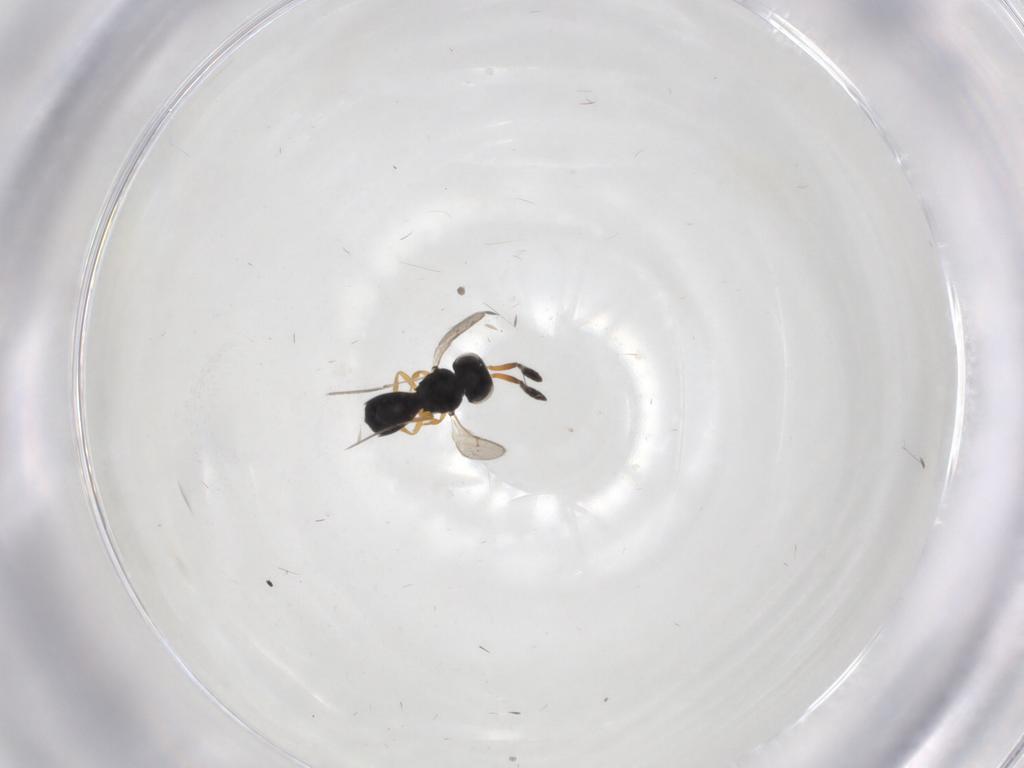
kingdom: Animalia
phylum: Arthropoda
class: Insecta
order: Hymenoptera
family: Scelionidae
